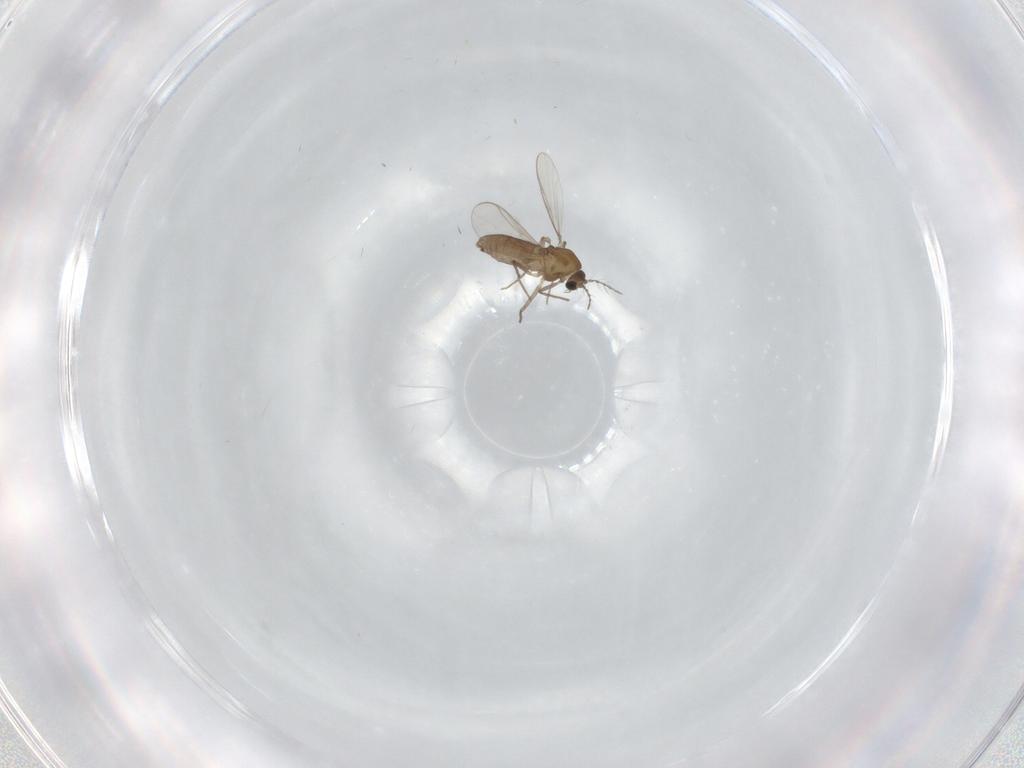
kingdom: Animalia
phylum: Arthropoda
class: Insecta
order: Diptera
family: Chironomidae
